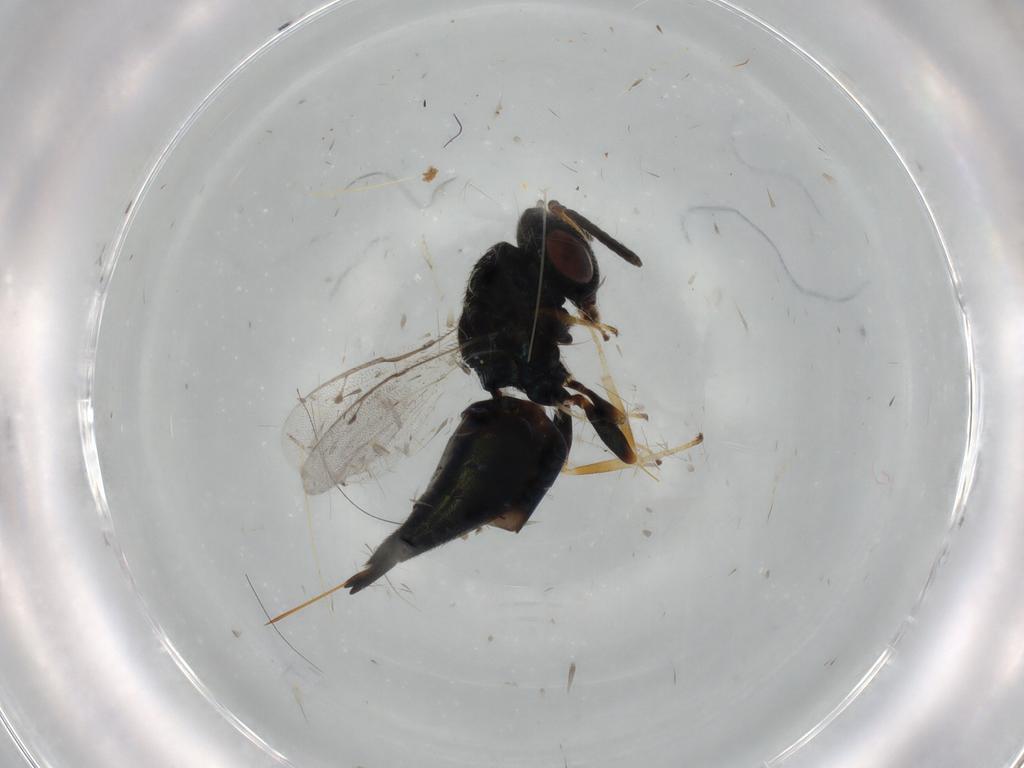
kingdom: Animalia
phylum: Arthropoda
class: Insecta
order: Hymenoptera
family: Pteromalidae
